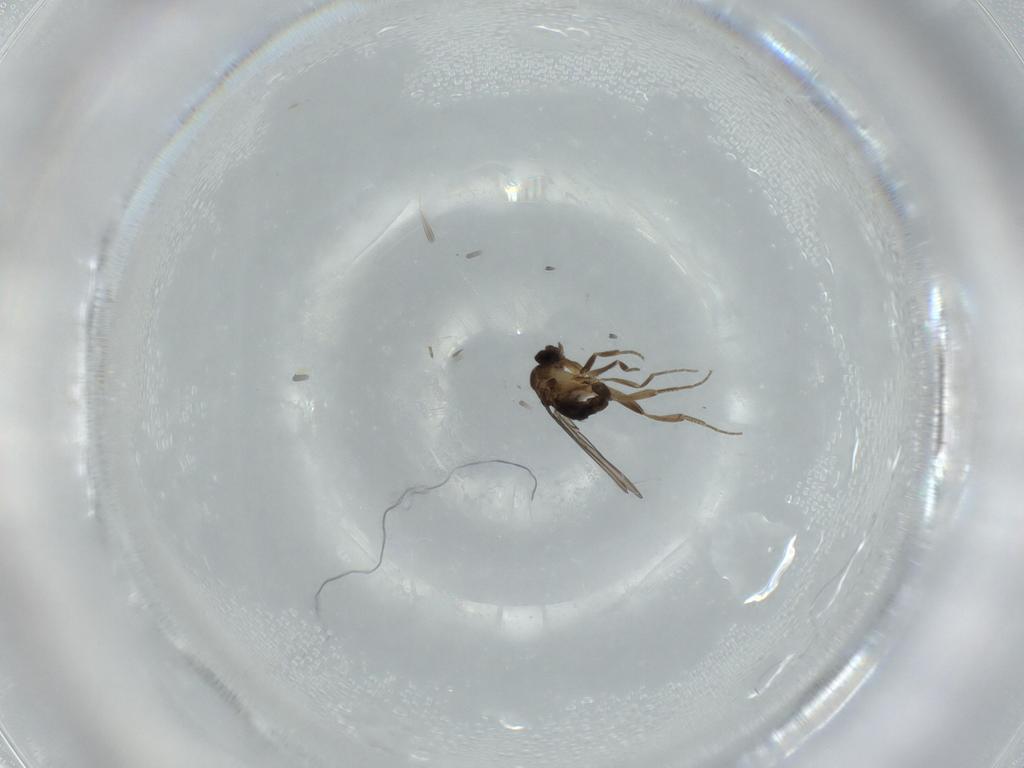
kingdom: Animalia
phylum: Arthropoda
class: Insecta
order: Diptera
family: Phoridae
